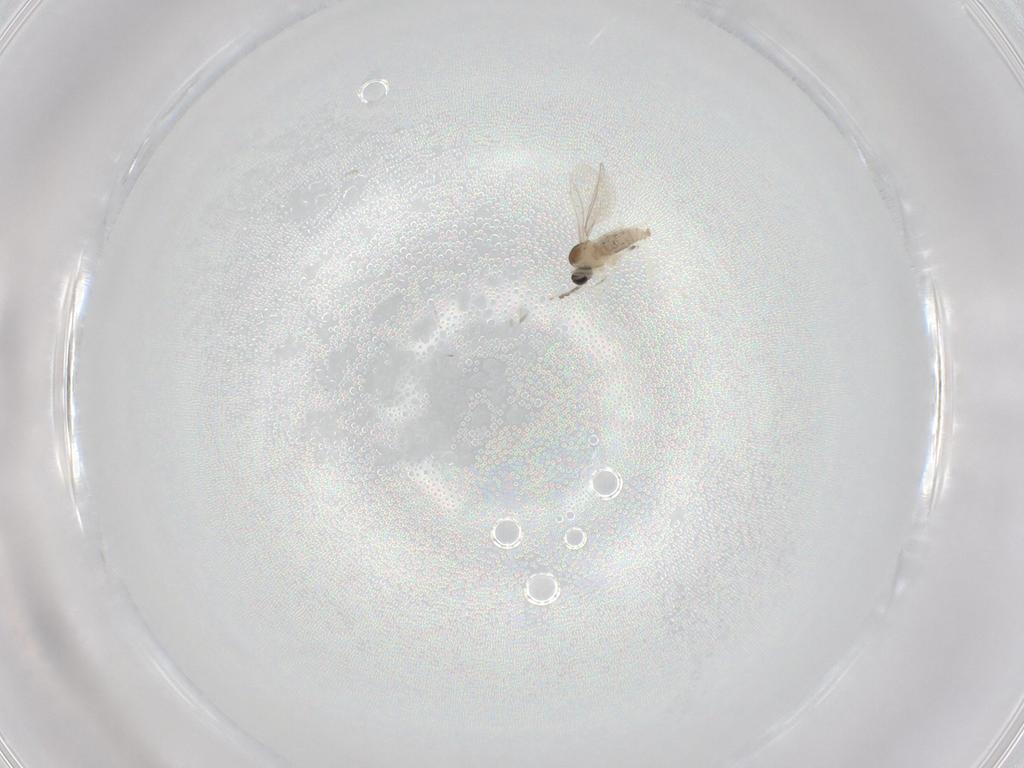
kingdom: Animalia
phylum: Arthropoda
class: Insecta
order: Diptera
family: Cecidomyiidae
